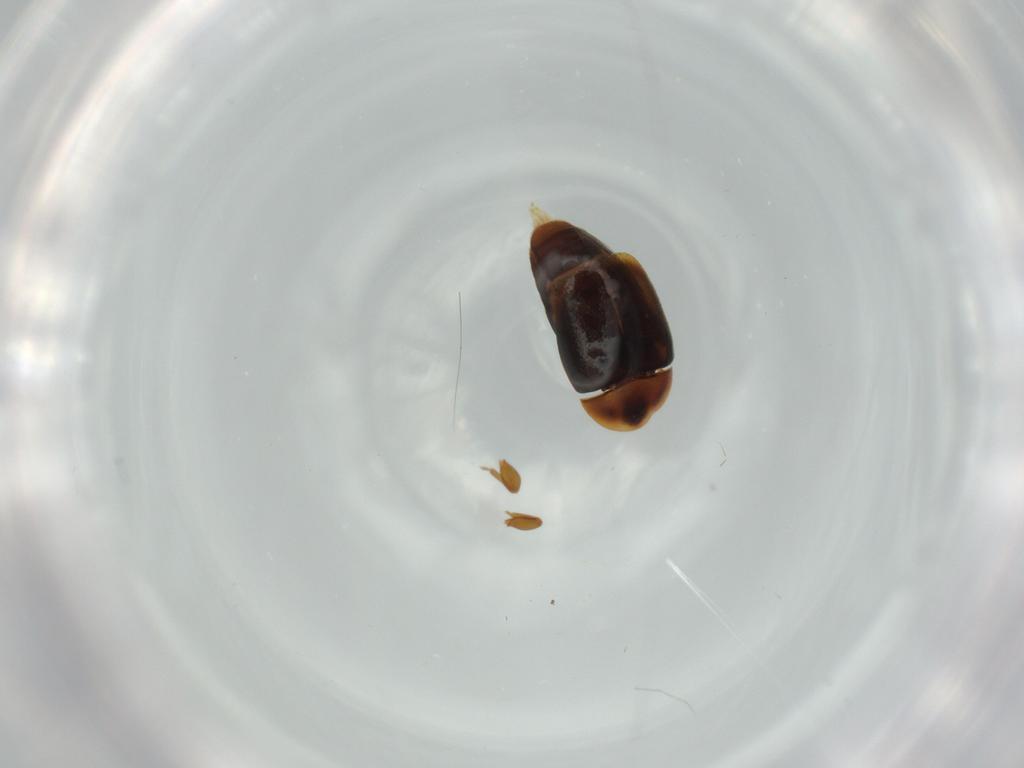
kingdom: Animalia
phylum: Arthropoda
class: Insecta
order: Coleoptera
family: Corylophidae
